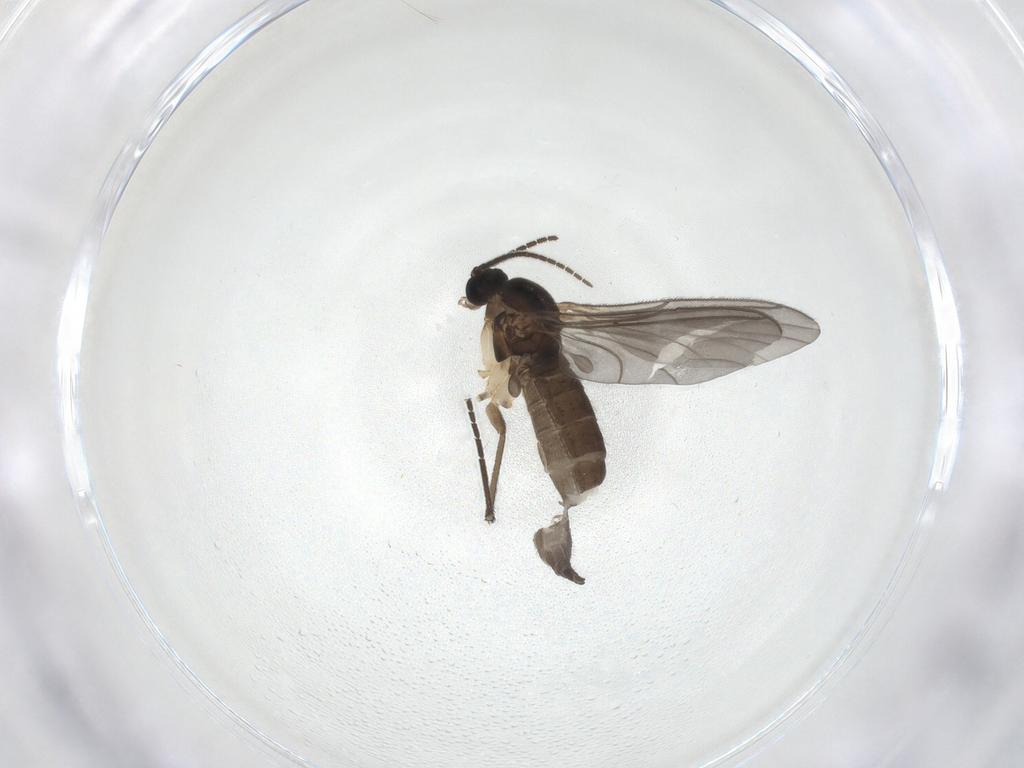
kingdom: Animalia
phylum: Arthropoda
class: Insecta
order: Diptera
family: Sciaridae
